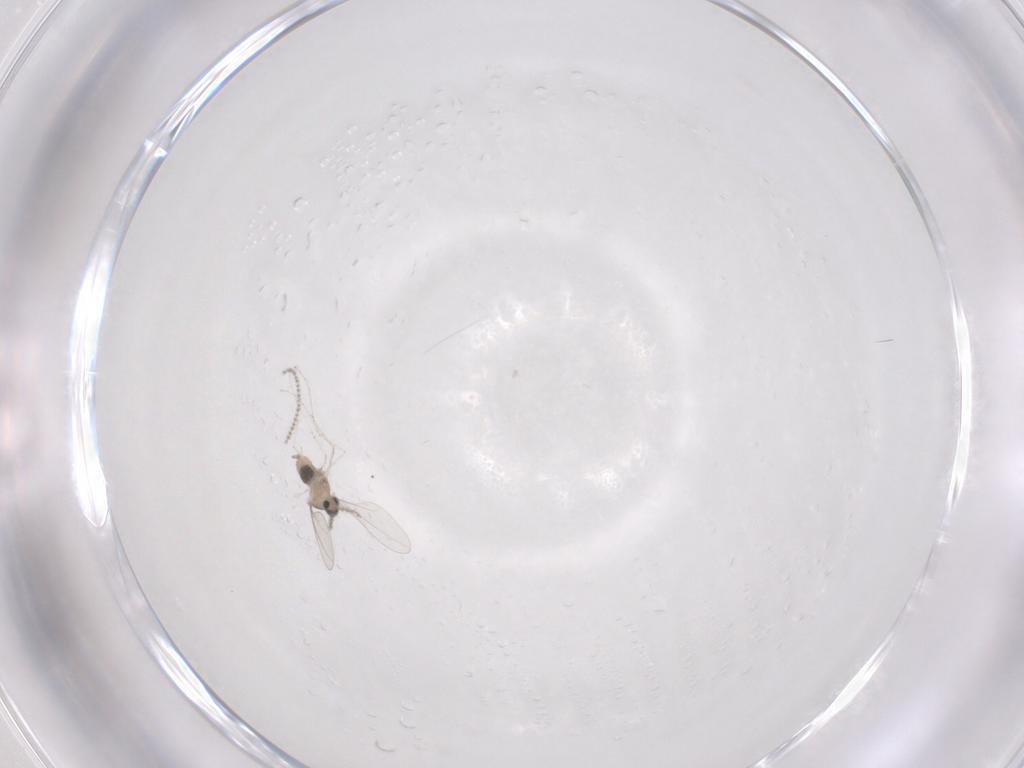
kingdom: Animalia
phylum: Arthropoda
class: Insecta
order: Diptera
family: Cecidomyiidae
